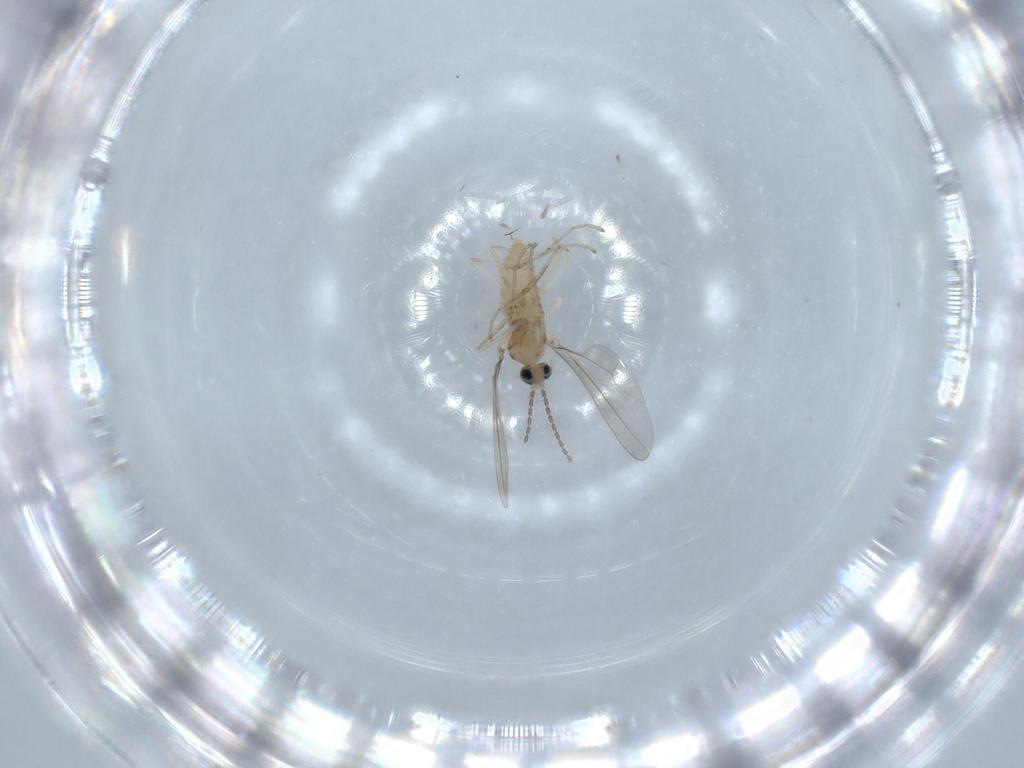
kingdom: Animalia
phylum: Arthropoda
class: Insecta
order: Diptera
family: Cecidomyiidae
